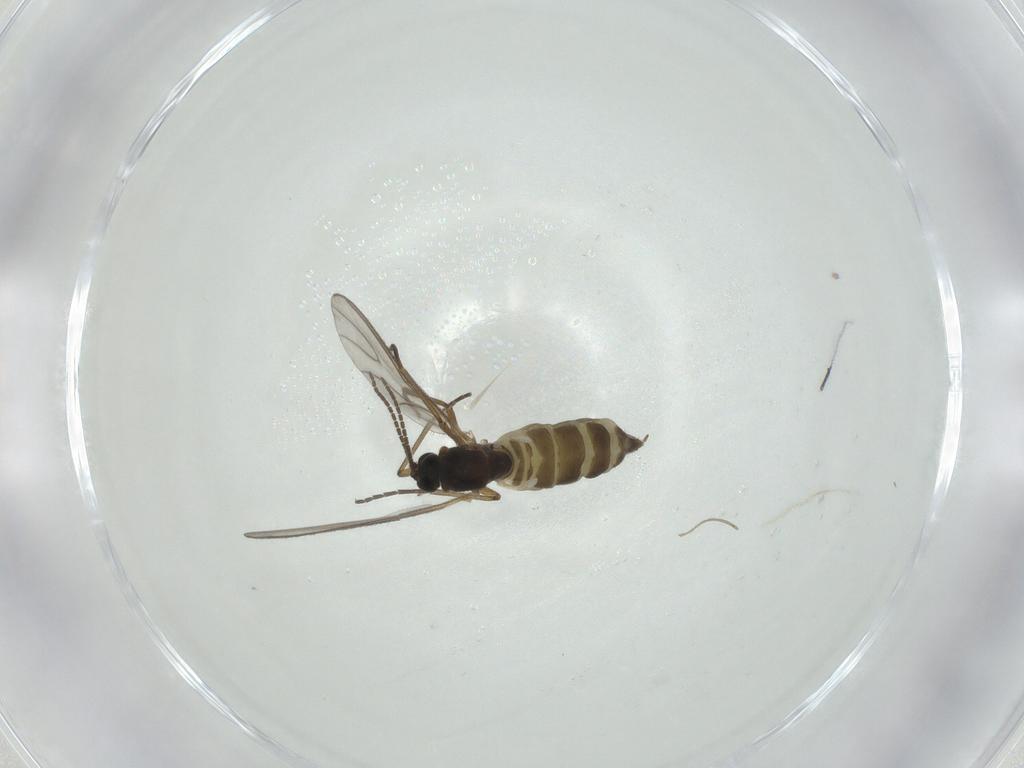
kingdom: Animalia
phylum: Arthropoda
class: Insecta
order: Diptera
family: Cecidomyiidae
